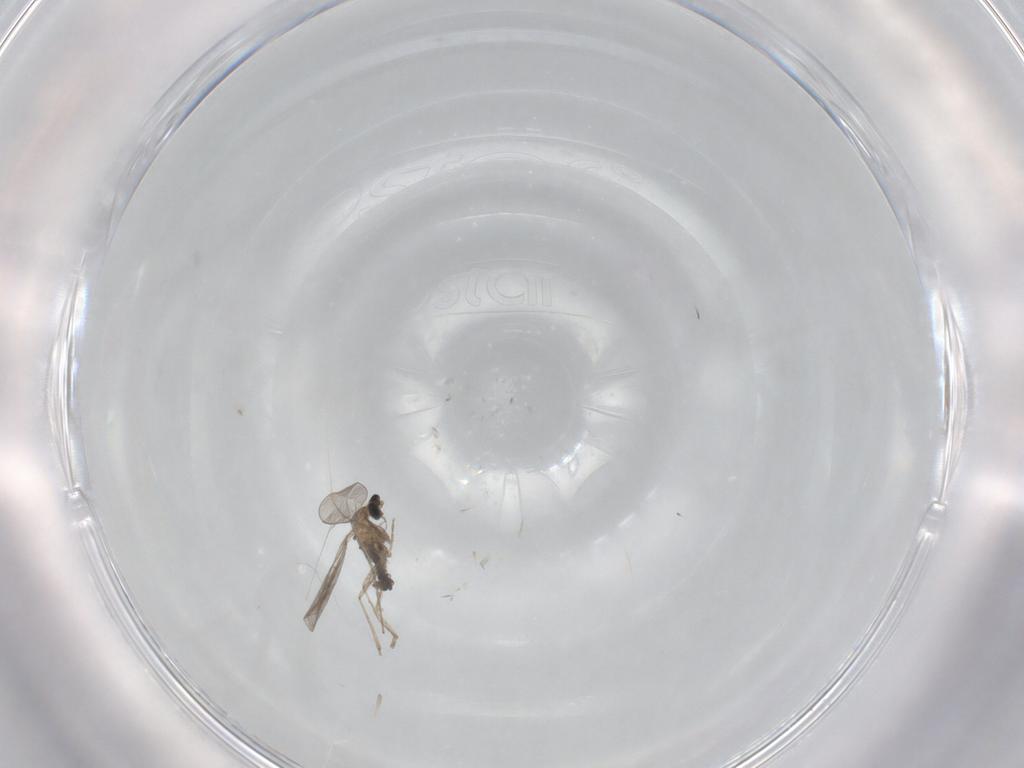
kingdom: Animalia
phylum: Arthropoda
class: Insecta
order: Diptera
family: Cecidomyiidae
